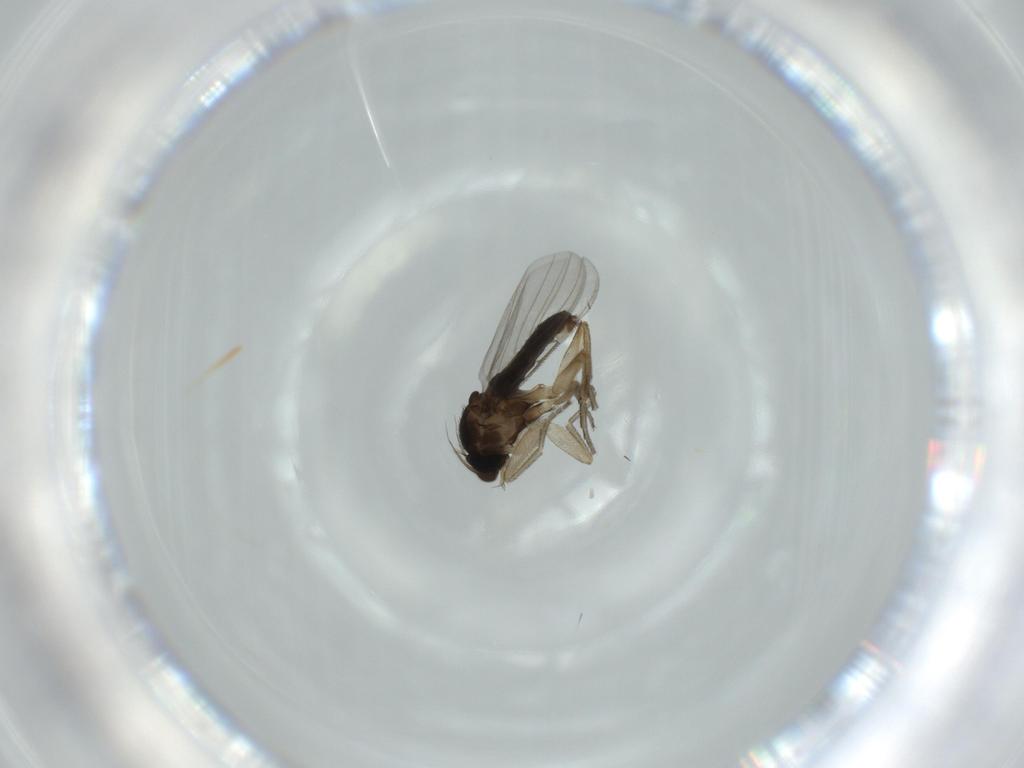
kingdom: Animalia
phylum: Arthropoda
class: Insecta
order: Diptera
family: Phoridae
